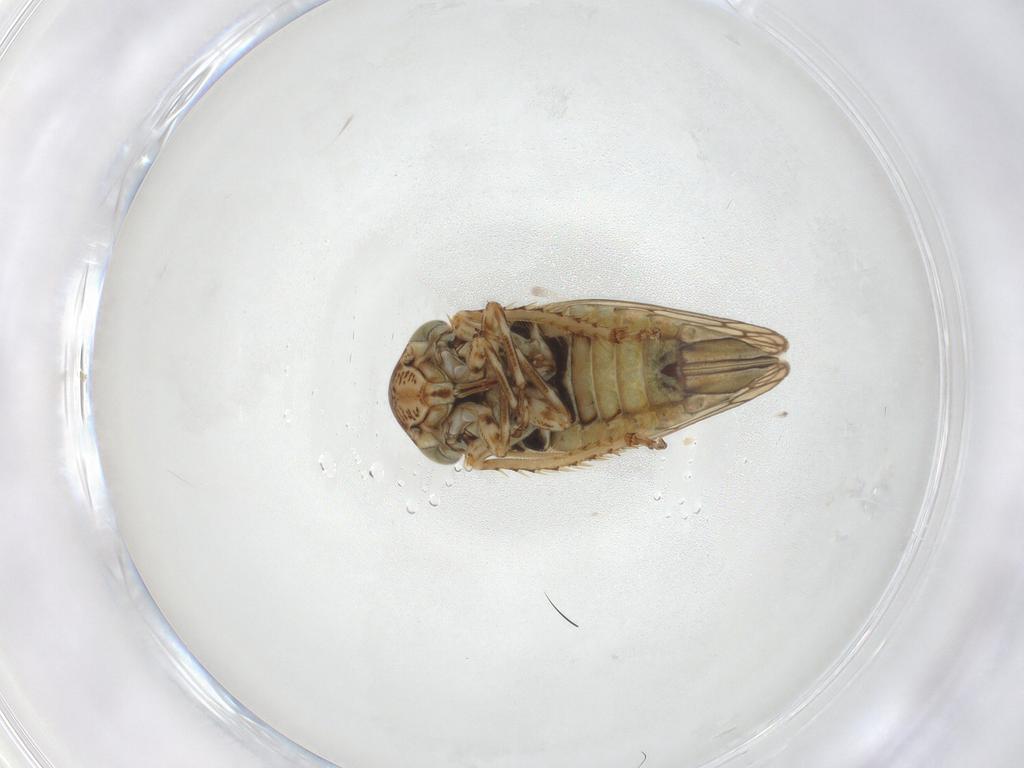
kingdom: Animalia
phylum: Arthropoda
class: Insecta
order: Hemiptera
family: Cicadellidae
